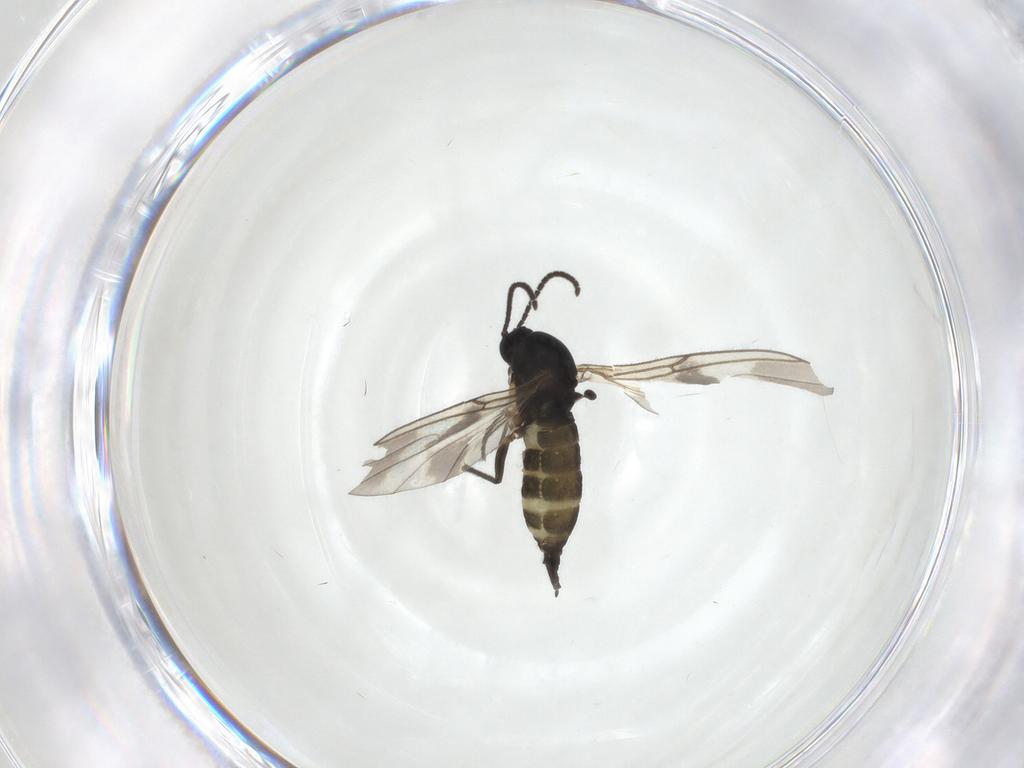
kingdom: Animalia
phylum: Arthropoda
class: Insecta
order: Diptera
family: Sciaridae
